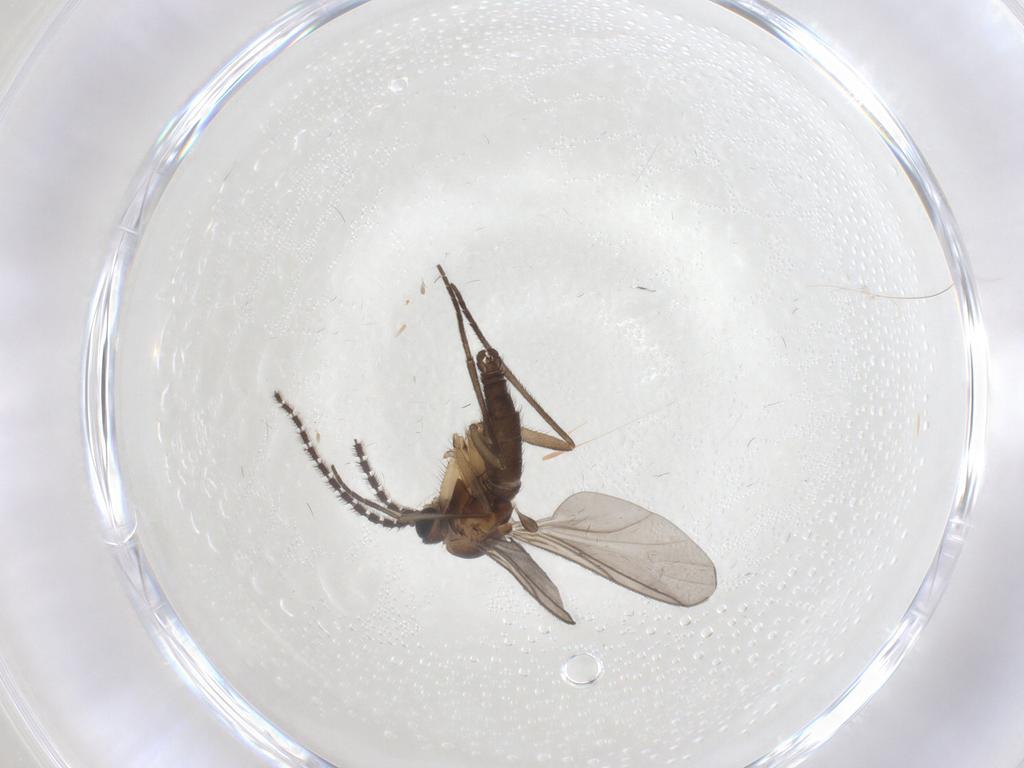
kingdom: Animalia
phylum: Arthropoda
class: Insecta
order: Diptera
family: Sciaridae
